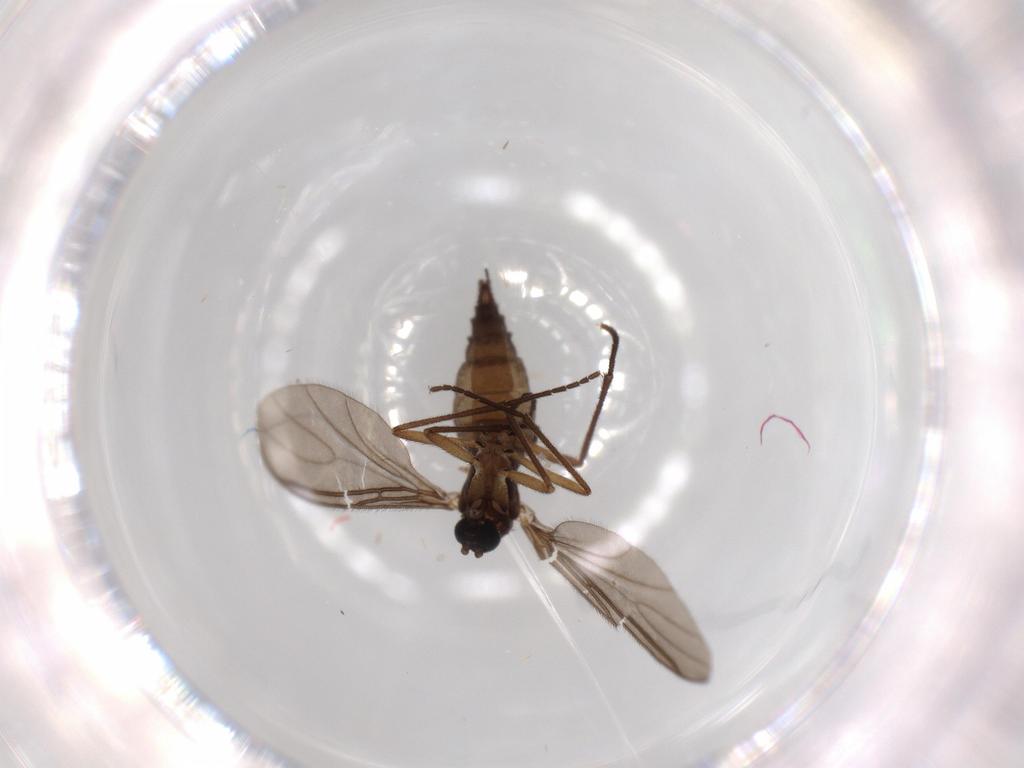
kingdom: Animalia
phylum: Arthropoda
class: Insecta
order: Diptera
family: Sciaridae
